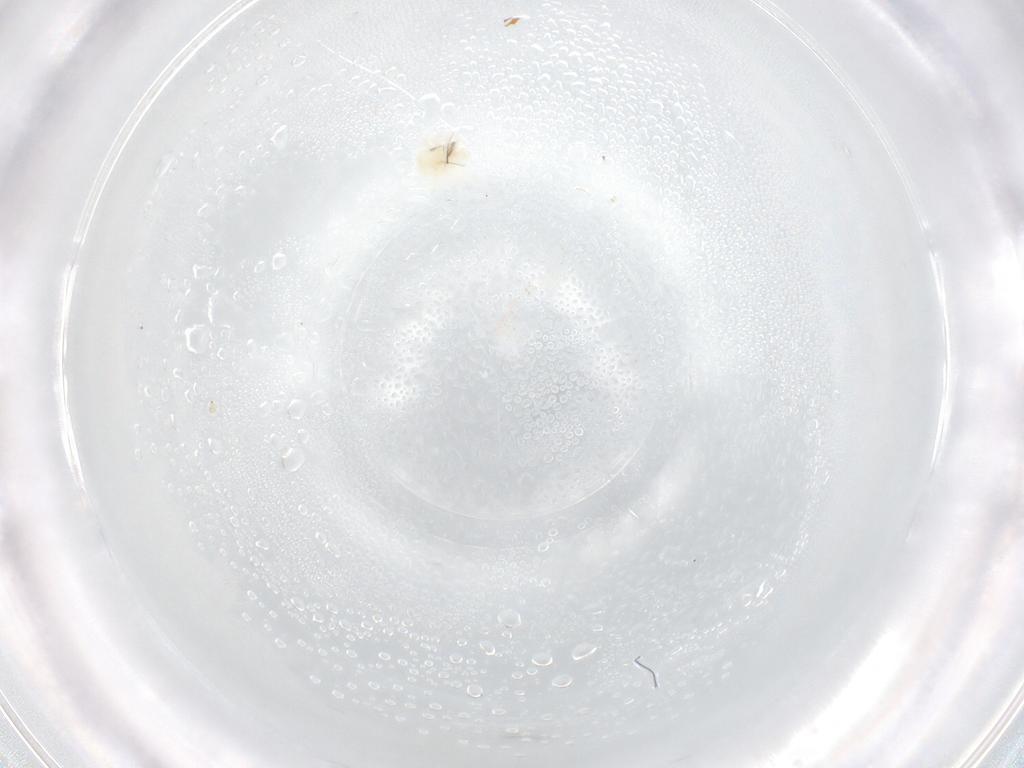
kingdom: Animalia
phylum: Arthropoda
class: Arachnida
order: Trombidiformes
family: Anystidae
